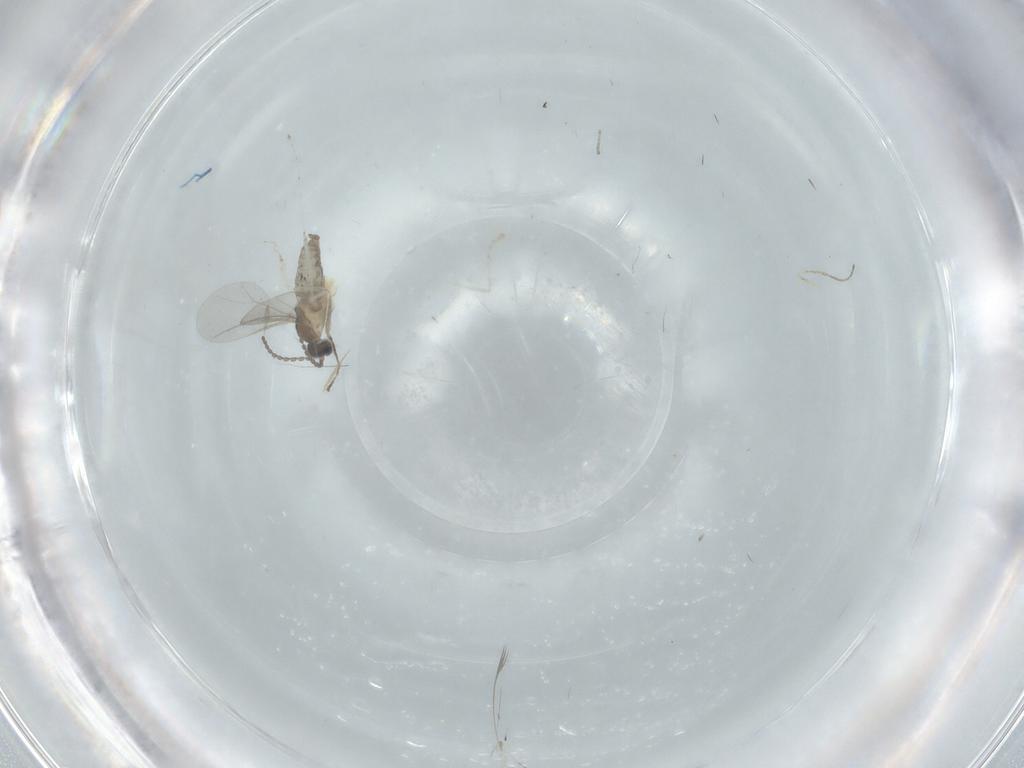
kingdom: Animalia
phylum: Arthropoda
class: Insecta
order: Diptera
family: Cecidomyiidae
